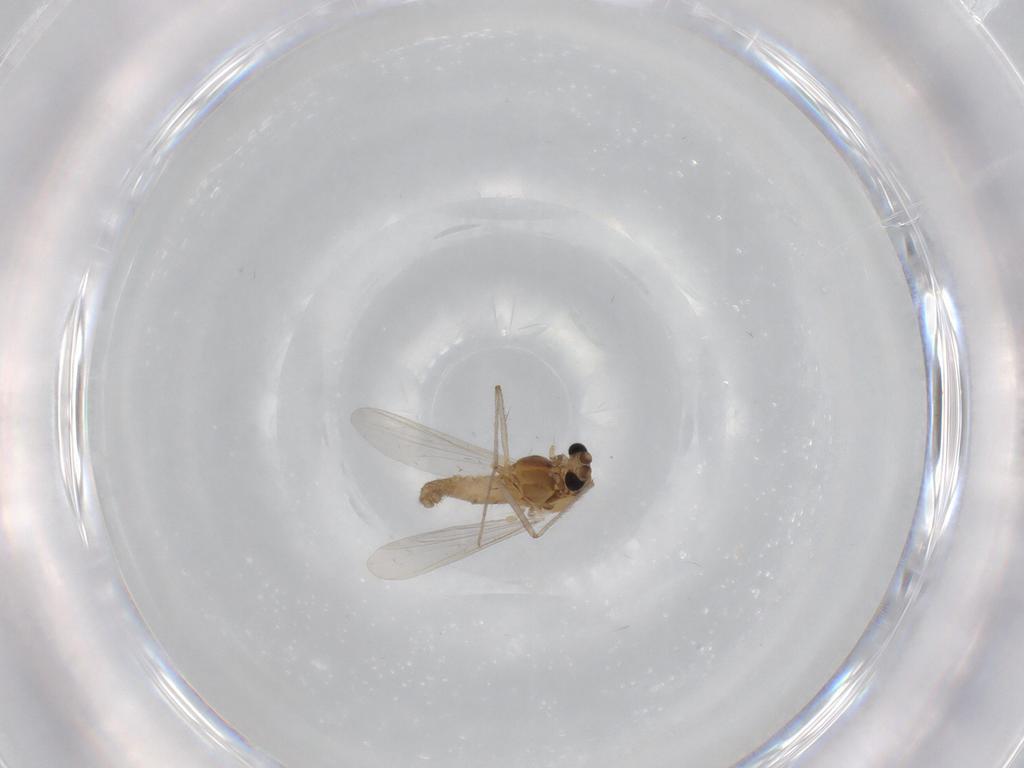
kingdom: Animalia
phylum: Arthropoda
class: Insecta
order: Diptera
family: Chironomidae
